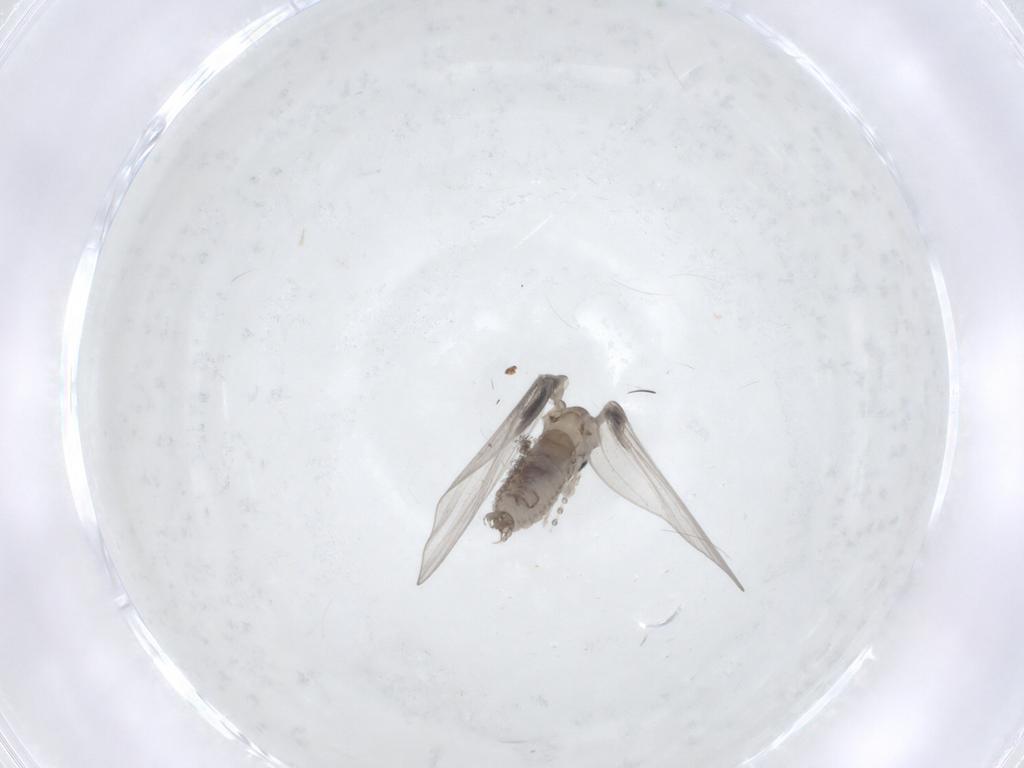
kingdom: Animalia
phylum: Arthropoda
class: Insecta
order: Diptera
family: Psychodidae
